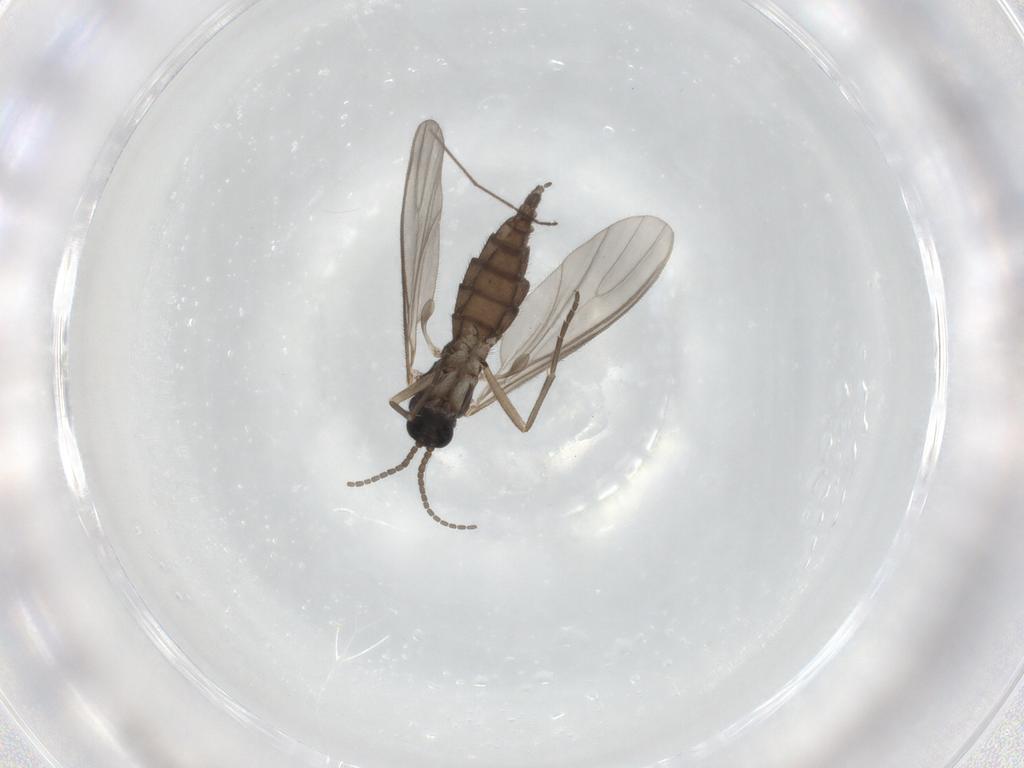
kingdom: Animalia
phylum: Arthropoda
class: Insecta
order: Diptera
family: Sciaridae
